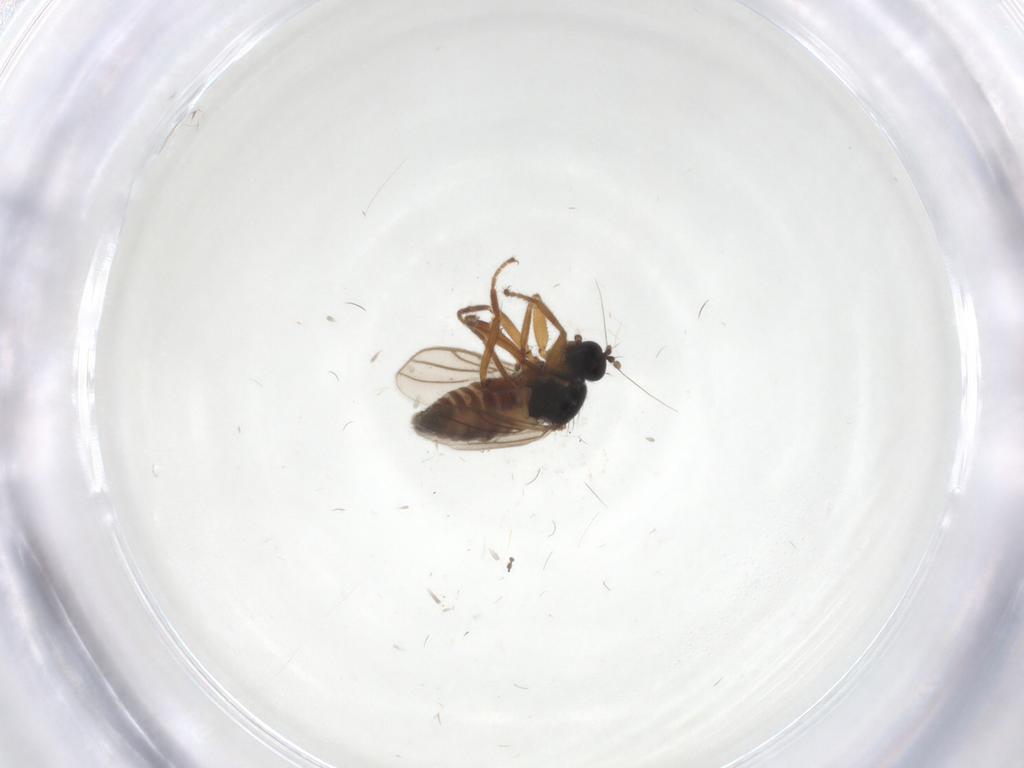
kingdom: Animalia
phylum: Arthropoda
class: Insecta
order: Diptera
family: Hybotidae
